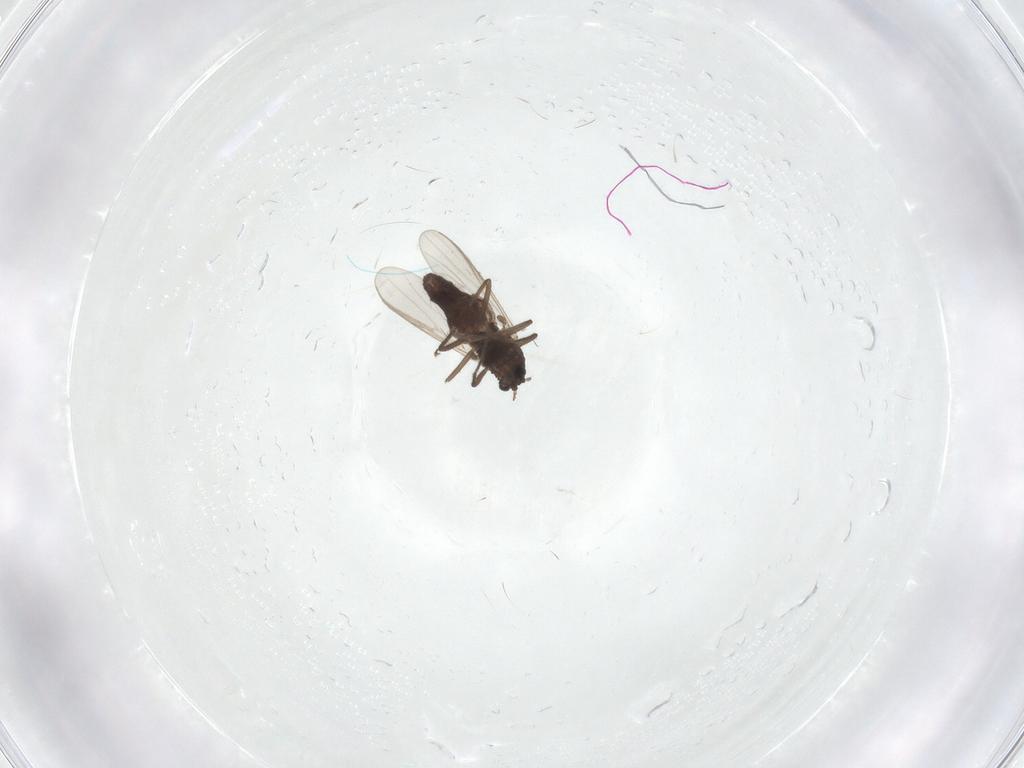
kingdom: Animalia
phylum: Arthropoda
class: Insecta
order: Diptera
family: Chironomidae
